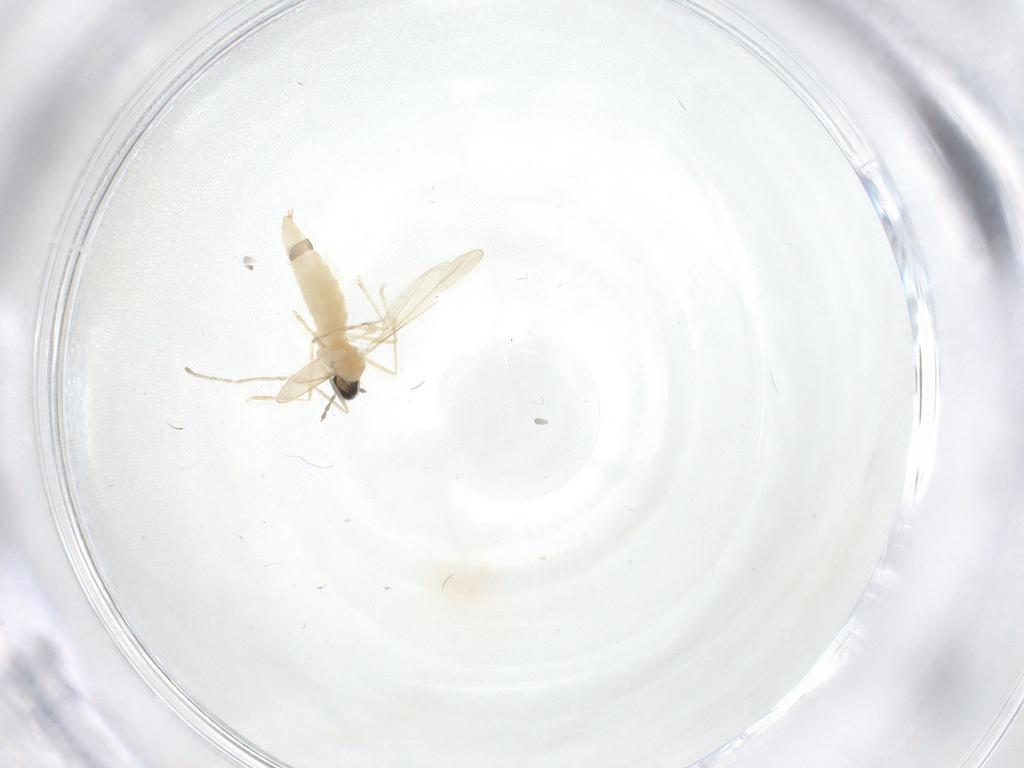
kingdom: Animalia
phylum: Arthropoda
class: Insecta
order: Diptera
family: Cecidomyiidae
